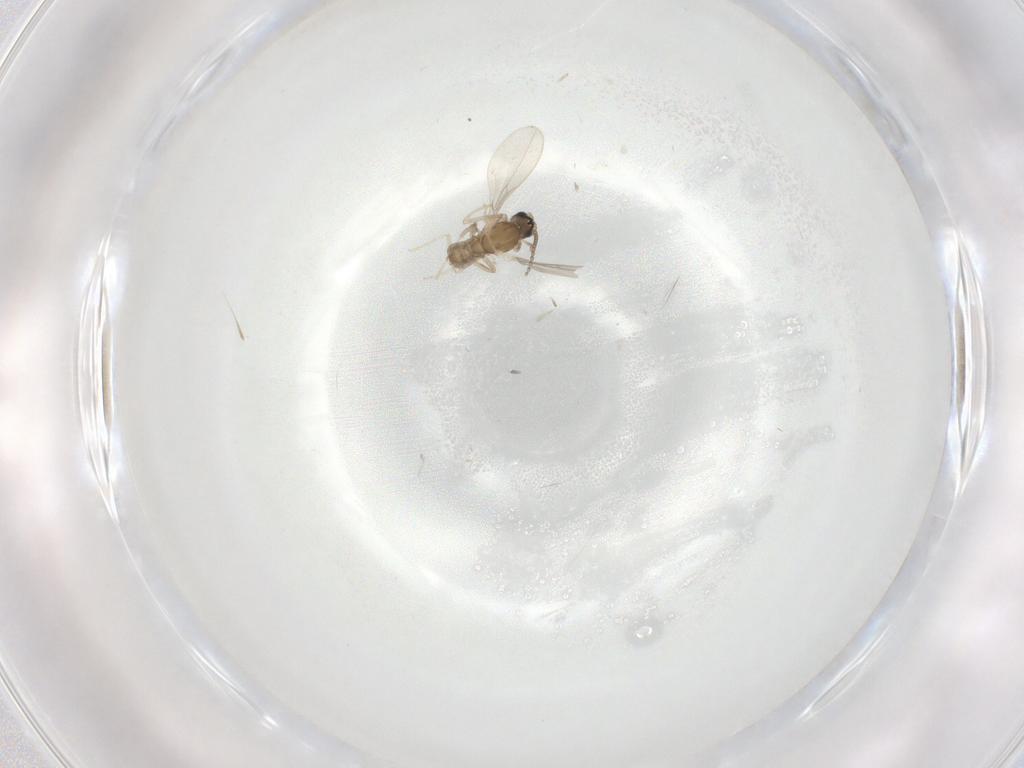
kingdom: Animalia
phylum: Arthropoda
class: Insecta
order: Diptera
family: Cecidomyiidae
